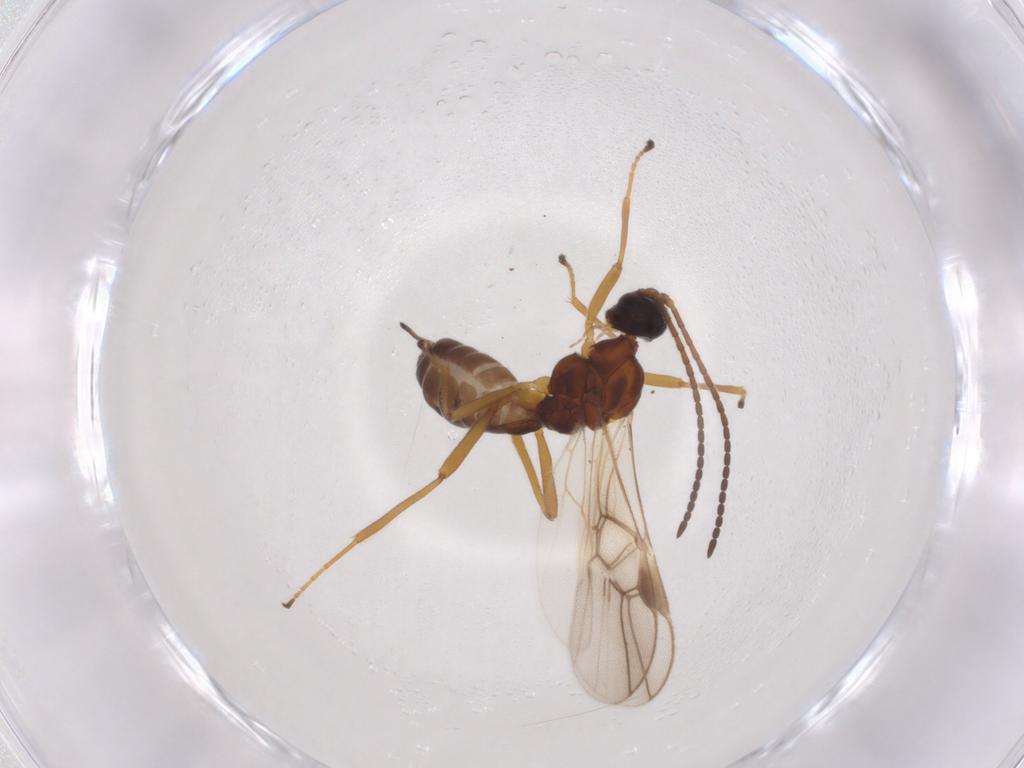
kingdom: Animalia
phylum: Arthropoda
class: Insecta
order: Hymenoptera
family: Braconidae
